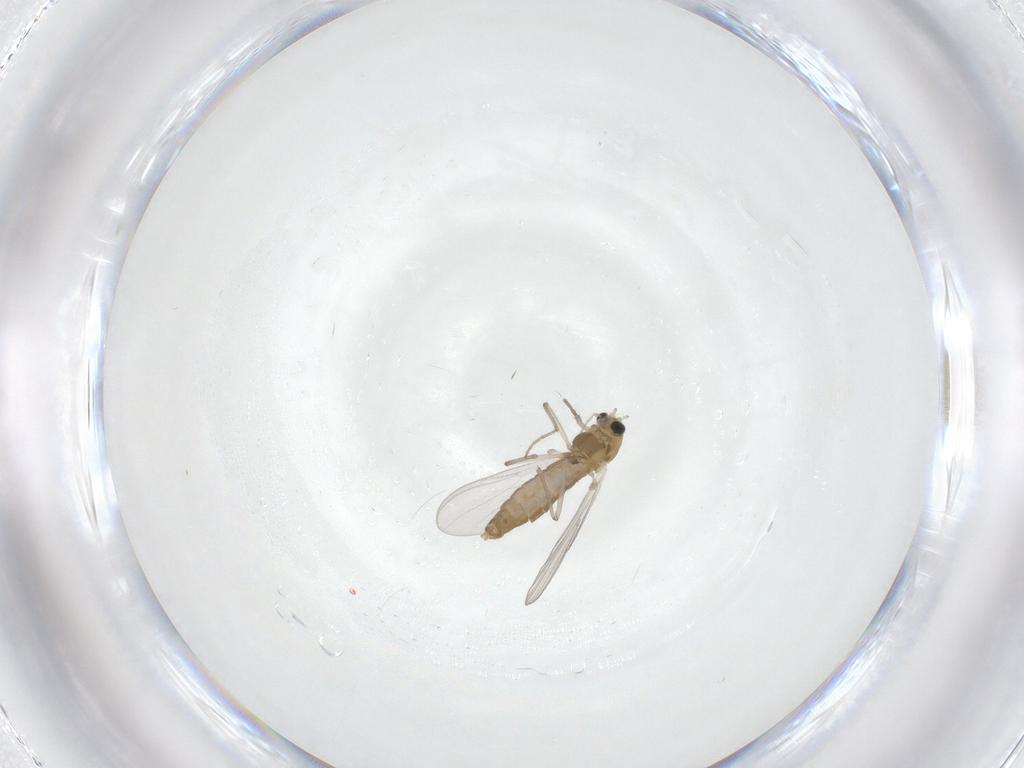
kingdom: Animalia
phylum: Arthropoda
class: Insecta
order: Diptera
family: Chironomidae
